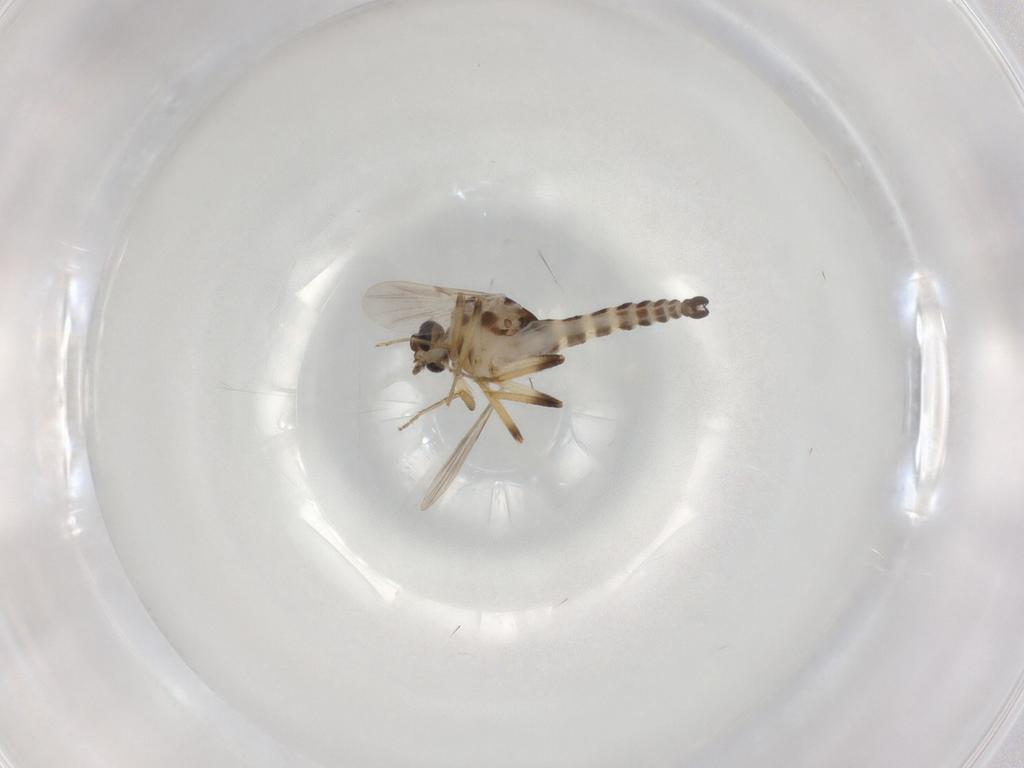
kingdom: Animalia
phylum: Arthropoda
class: Insecta
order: Diptera
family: Ceratopogonidae
